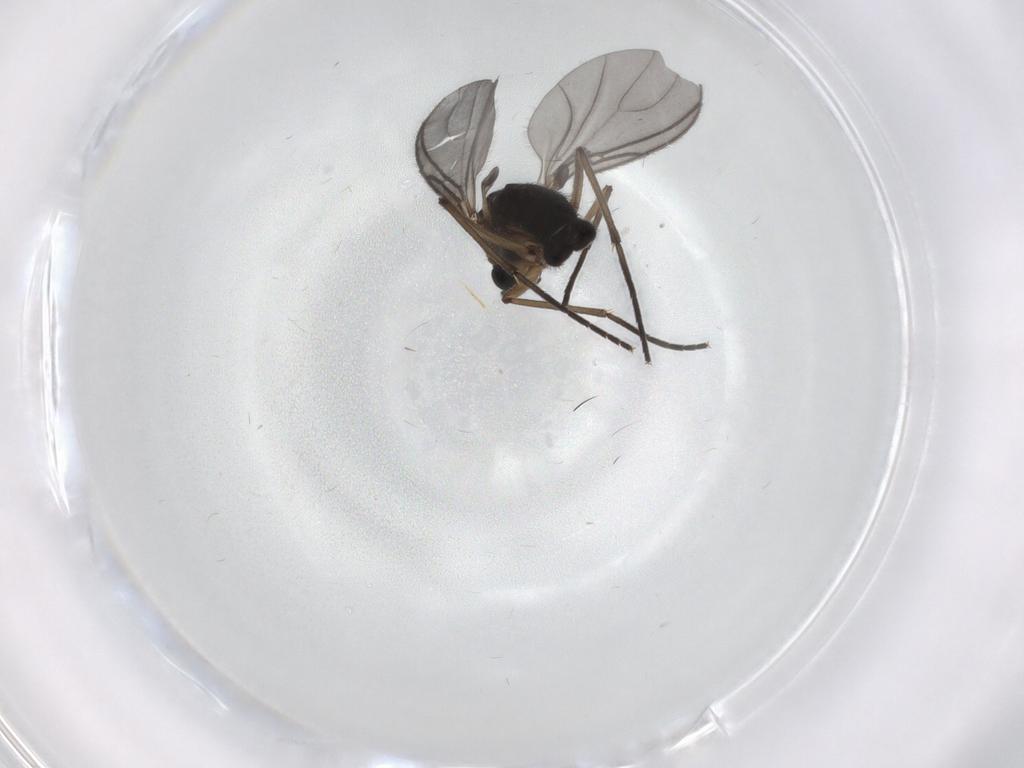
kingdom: Animalia
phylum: Arthropoda
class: Insecta
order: Diptera
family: Sciaridae
